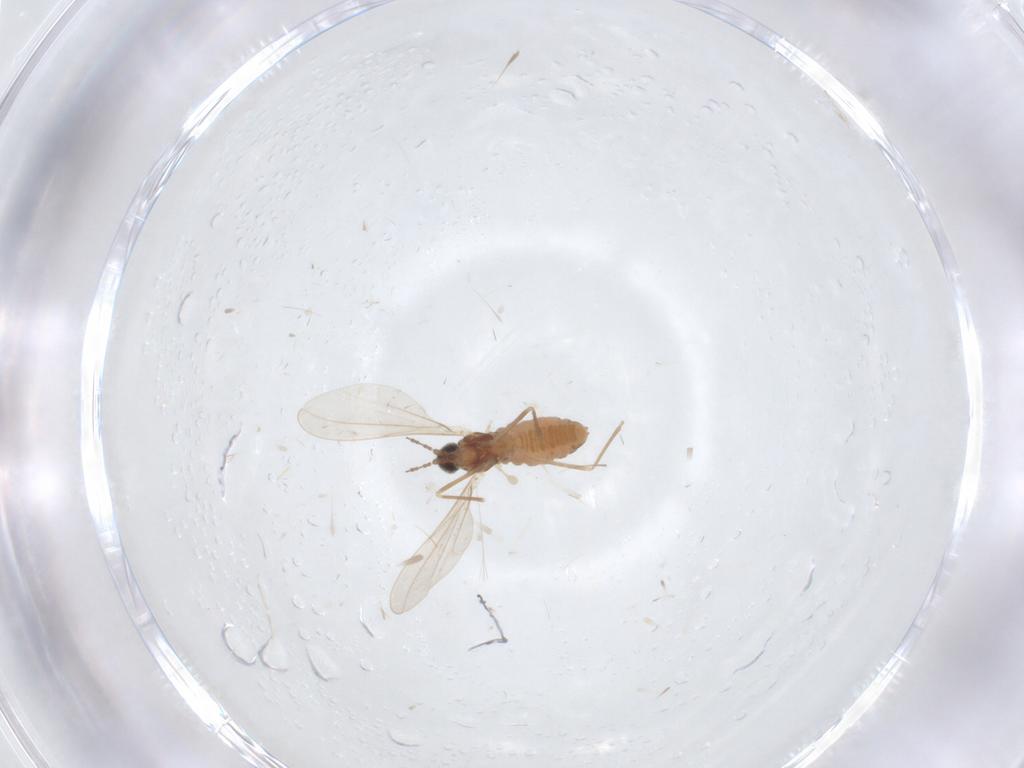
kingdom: Animalia
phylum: Arthropoda
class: Insecta
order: Diptera
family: Cecidomyiidae
